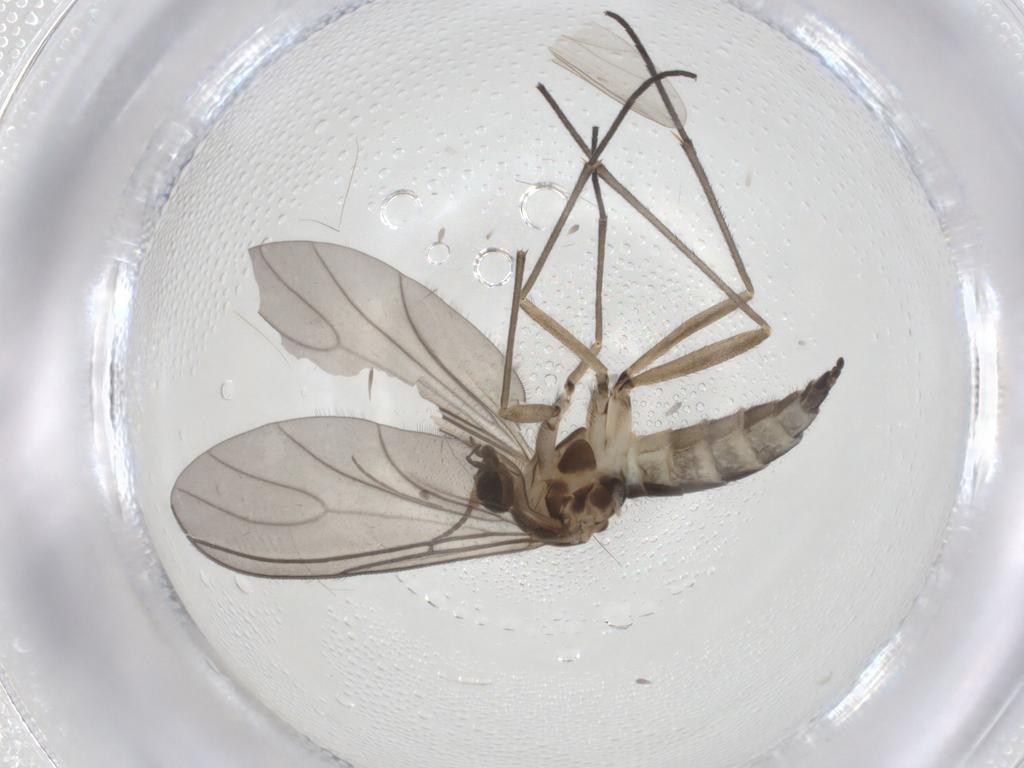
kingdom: Animalia
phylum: Arthropoda
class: Insecta
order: Diptera
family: Sciaridae
